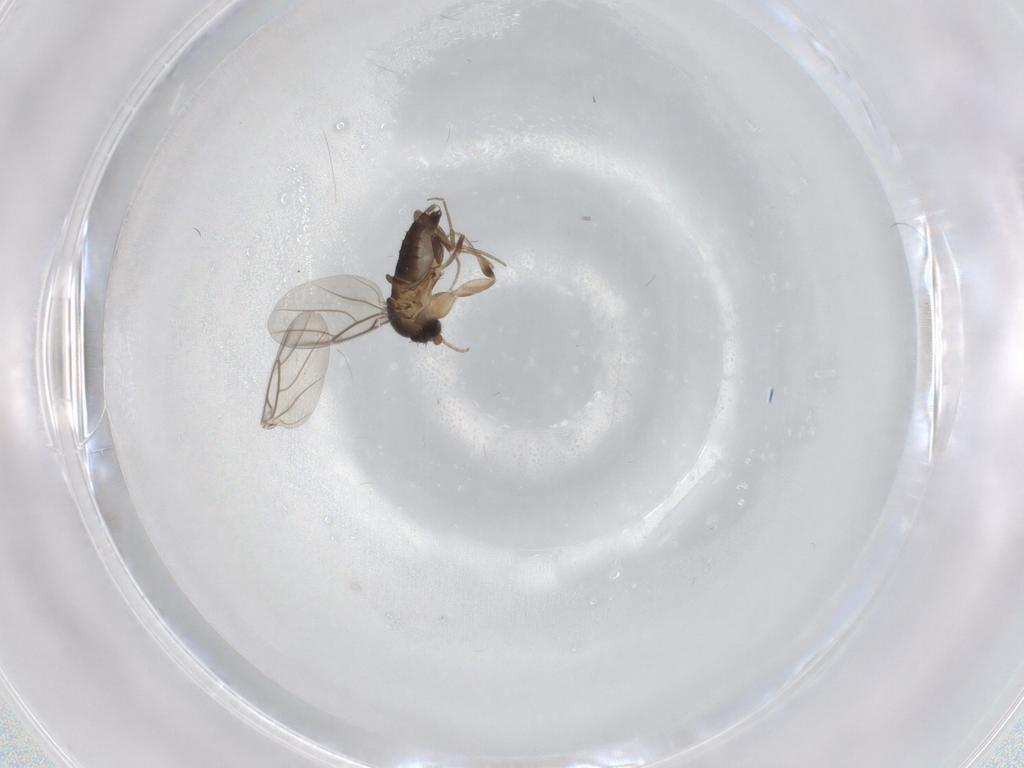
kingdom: Animalia
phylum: Arthropoda
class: Insecta
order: Diptera
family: Phoridae
